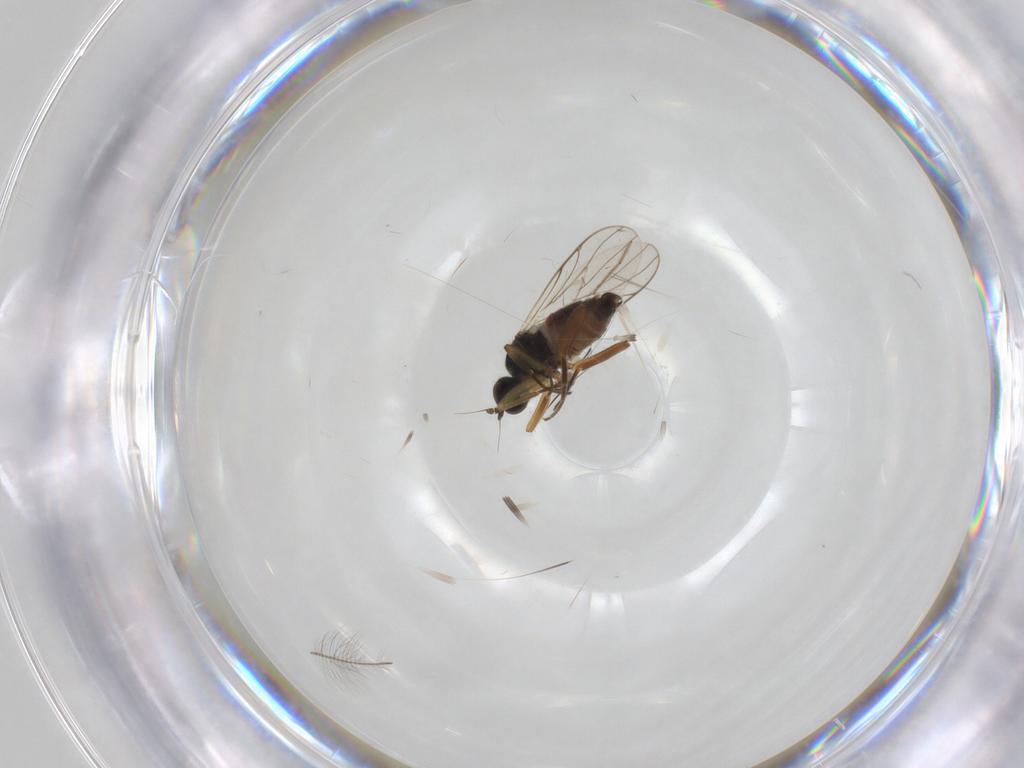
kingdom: Animalia
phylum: Arthropoda
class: Insecta
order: Diptera
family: Hybotidae
